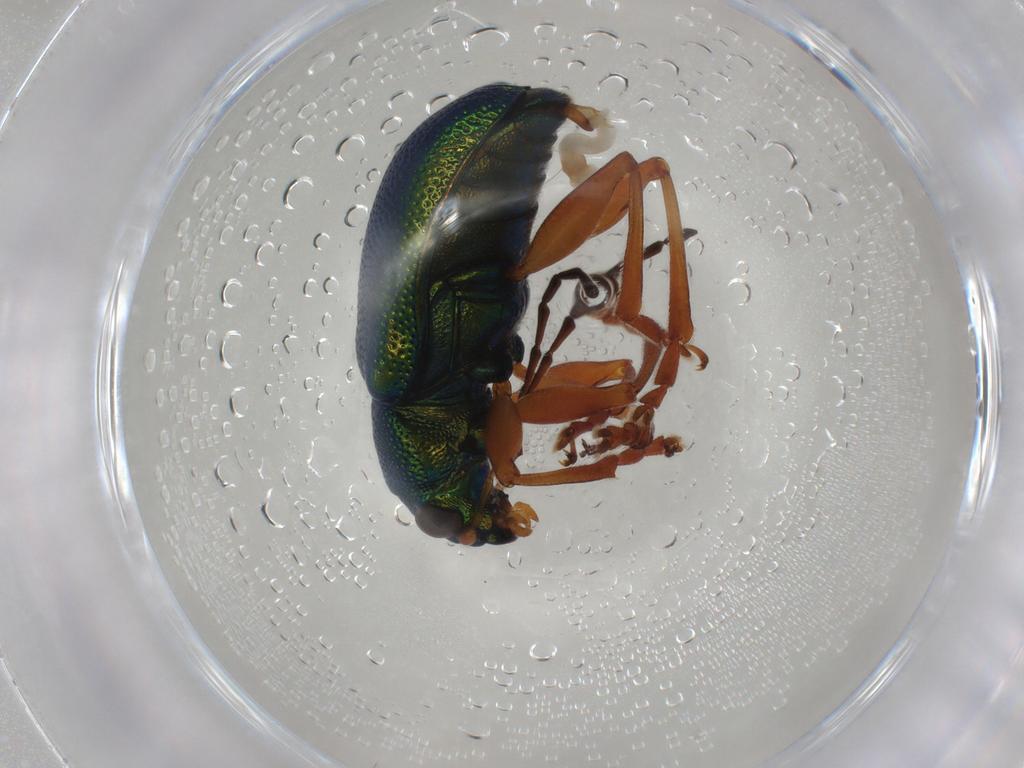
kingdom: Animalia
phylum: Arthropoda
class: Insecta
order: Coleoptera
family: Chrysomelidae
